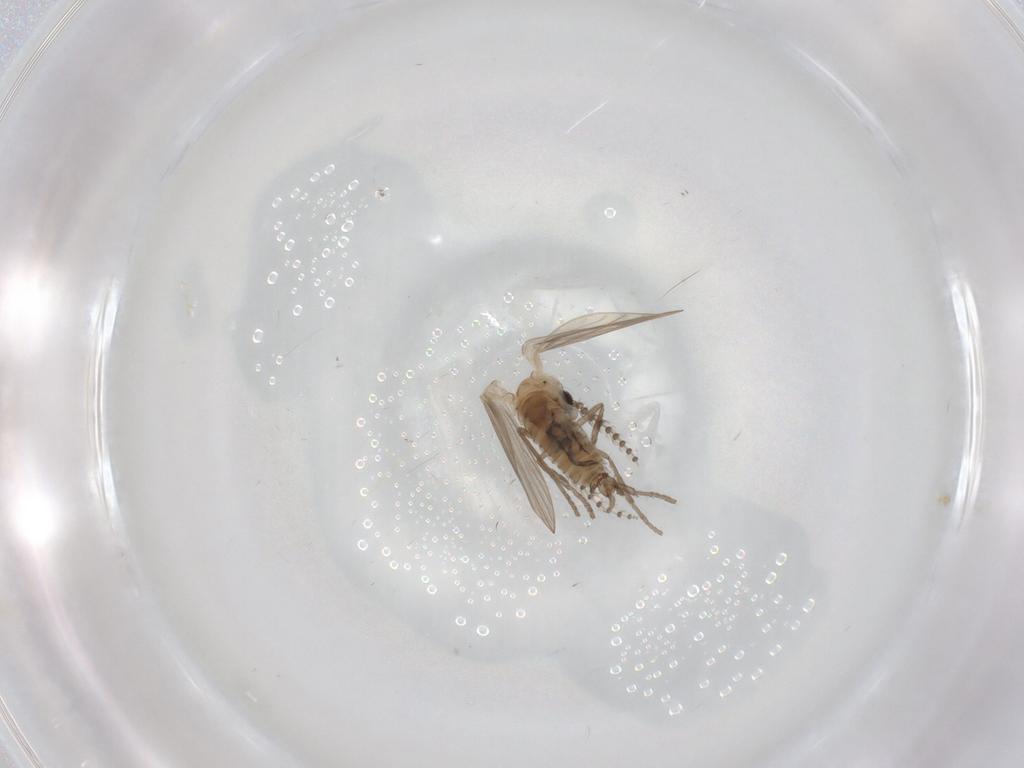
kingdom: Animalia
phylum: Arthropoda
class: Insecta
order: Diptera
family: Psychodidae
